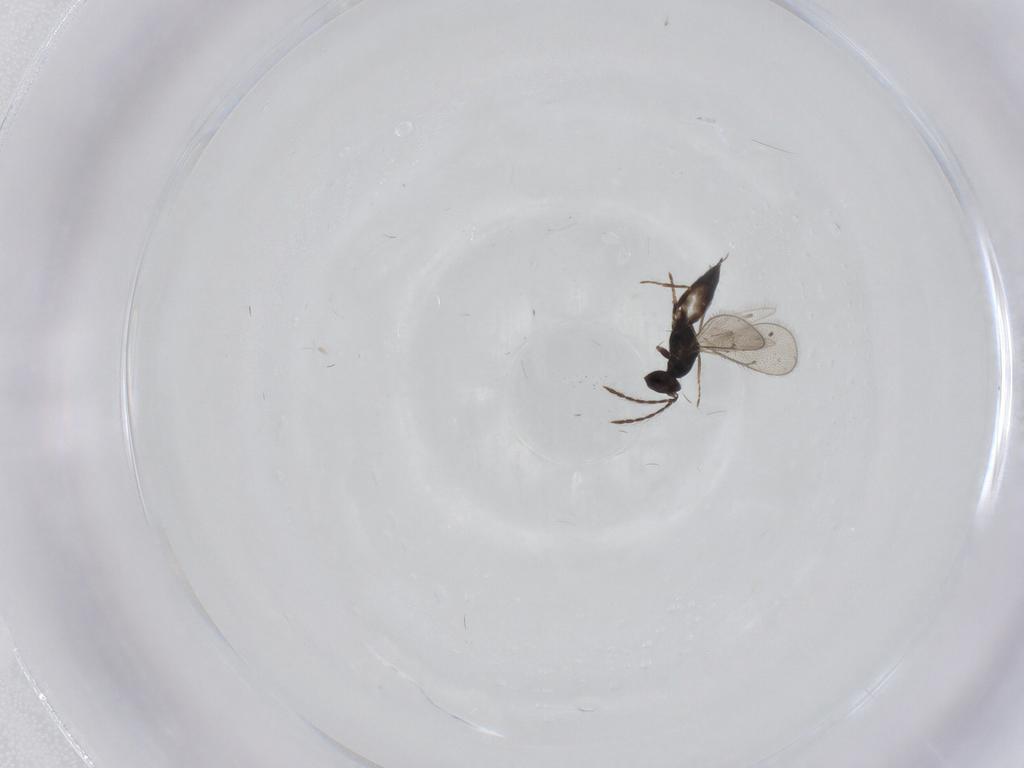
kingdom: Animalia
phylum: Arthropoda
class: Insecta
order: Hymenoptera
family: Eulophidae
